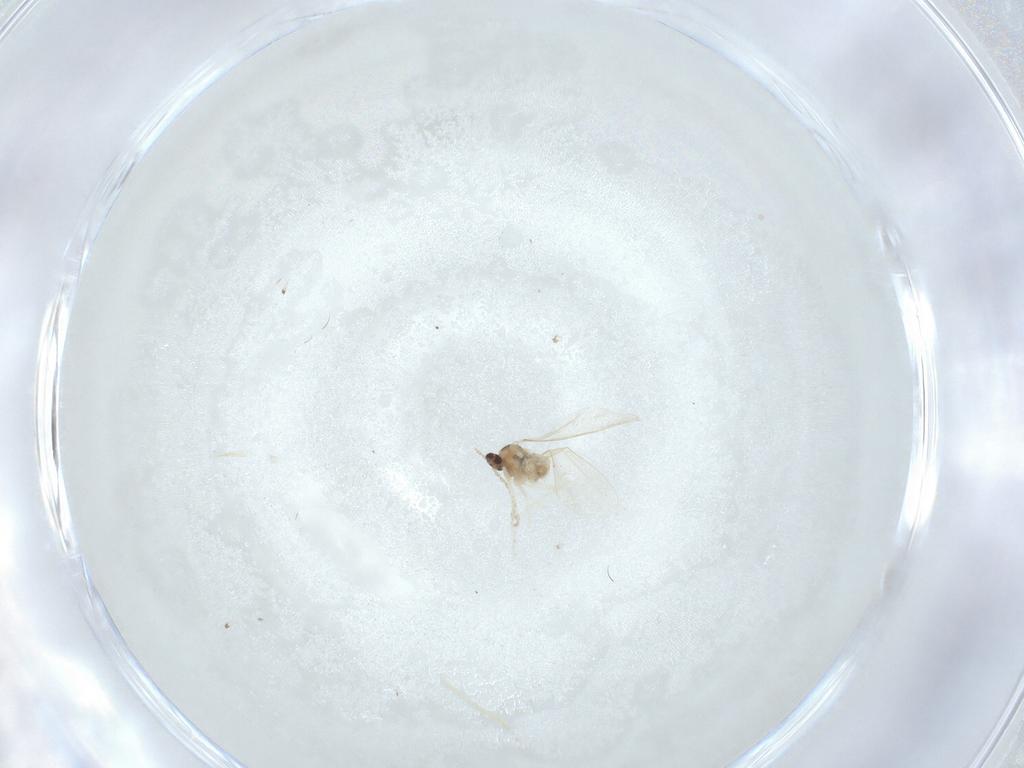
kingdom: Animalia
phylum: Arthropoda
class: Insecta
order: Diptera
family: Cecidomyiidae
